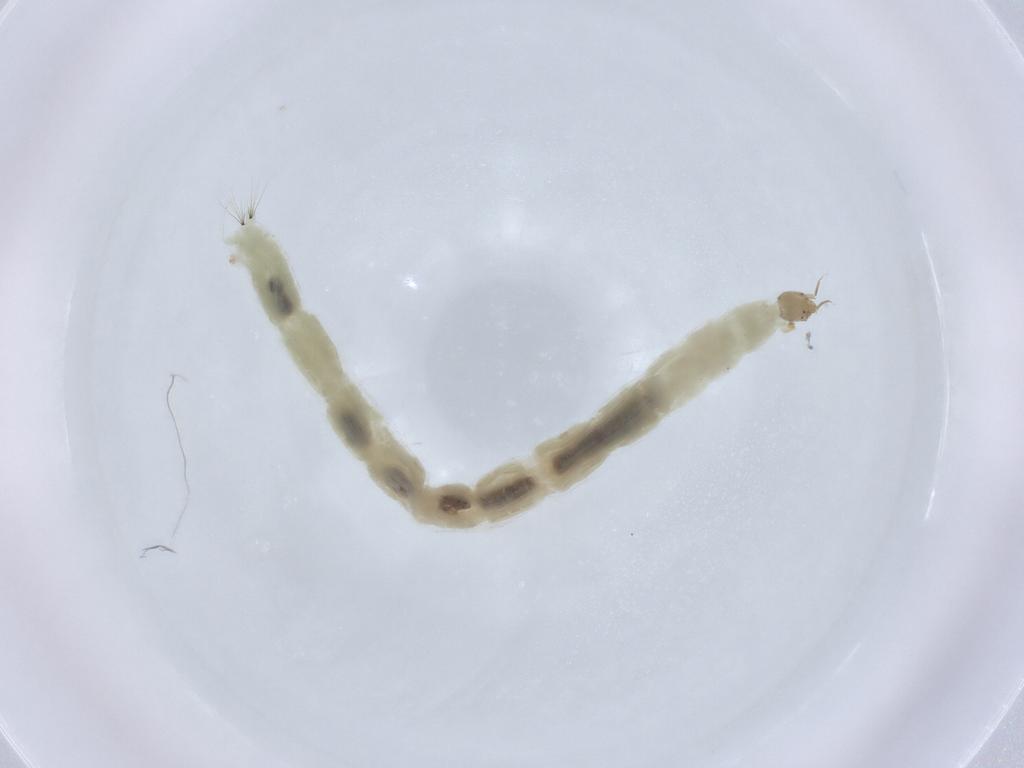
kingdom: Animalia
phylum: Arthropoda
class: Insecta
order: Diptera
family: Chironomidae
